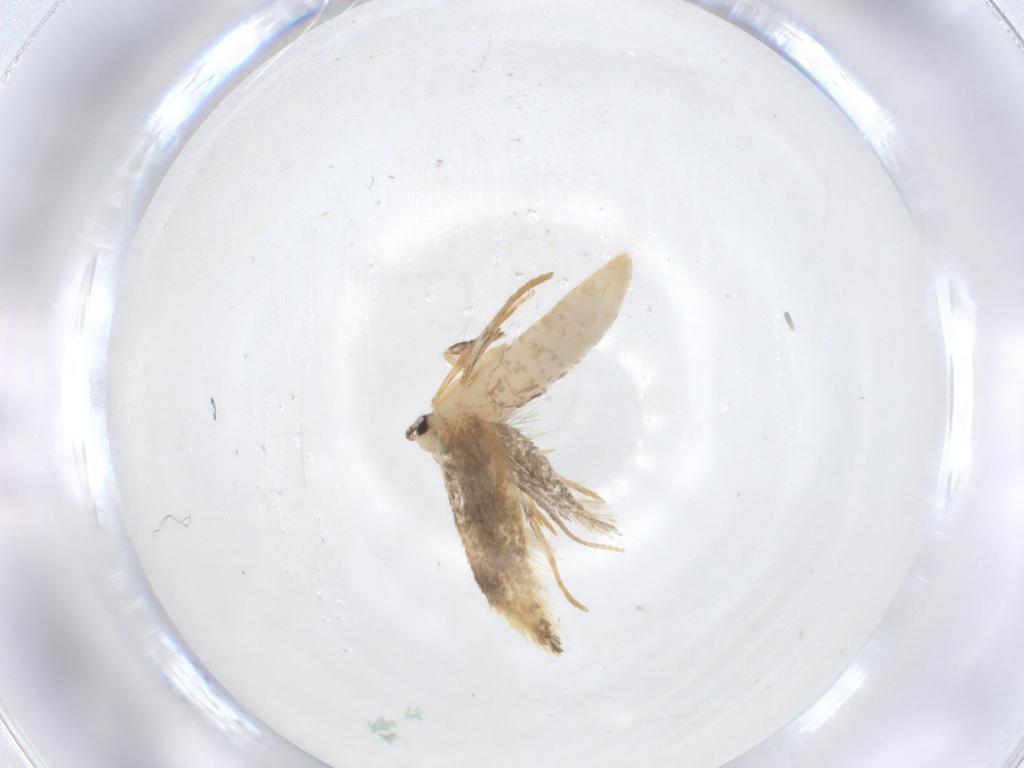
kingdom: Animalia
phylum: Arthropoda
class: Insecta
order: Lepidoptera
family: Tineidae
